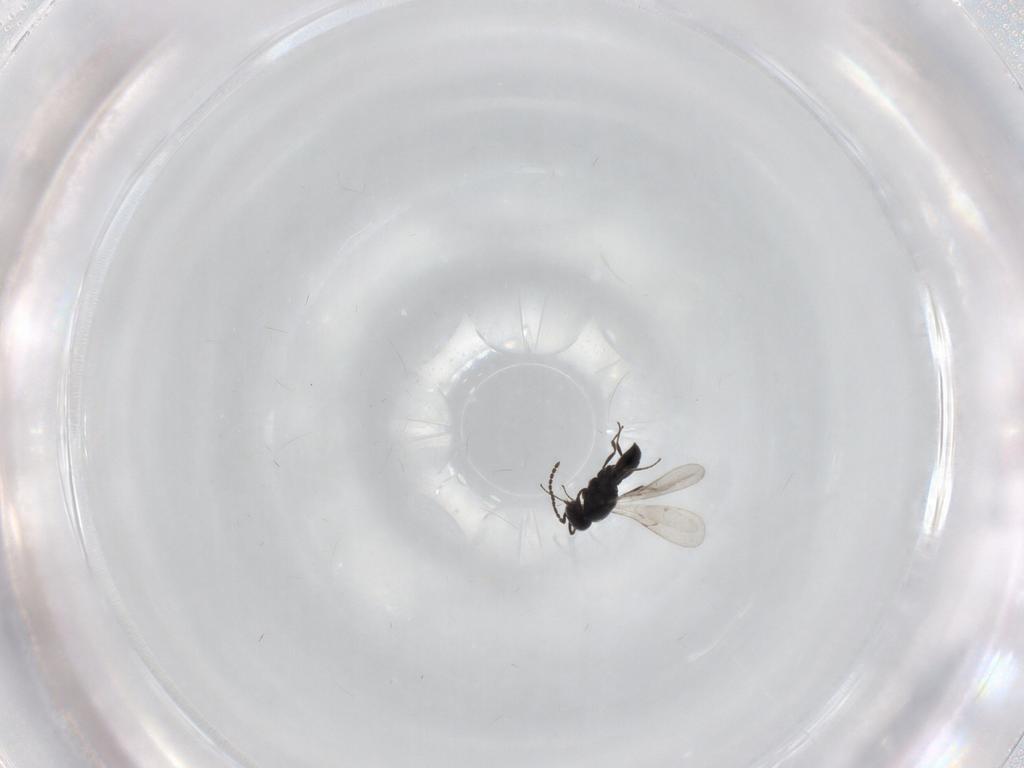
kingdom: Animalia
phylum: Arthropoda
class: Insecta
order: Hymenoptera
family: Scelionidae
